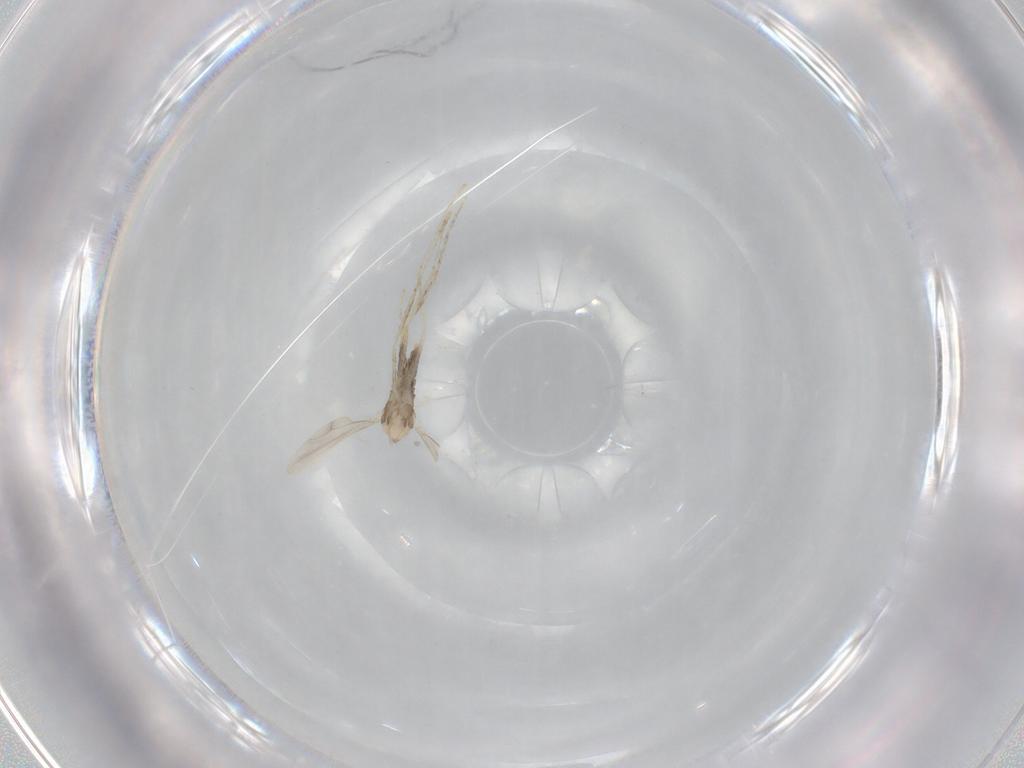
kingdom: Animalia
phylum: Arthropoda
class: Insecta
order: Diptera
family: Cecidomyiidae
